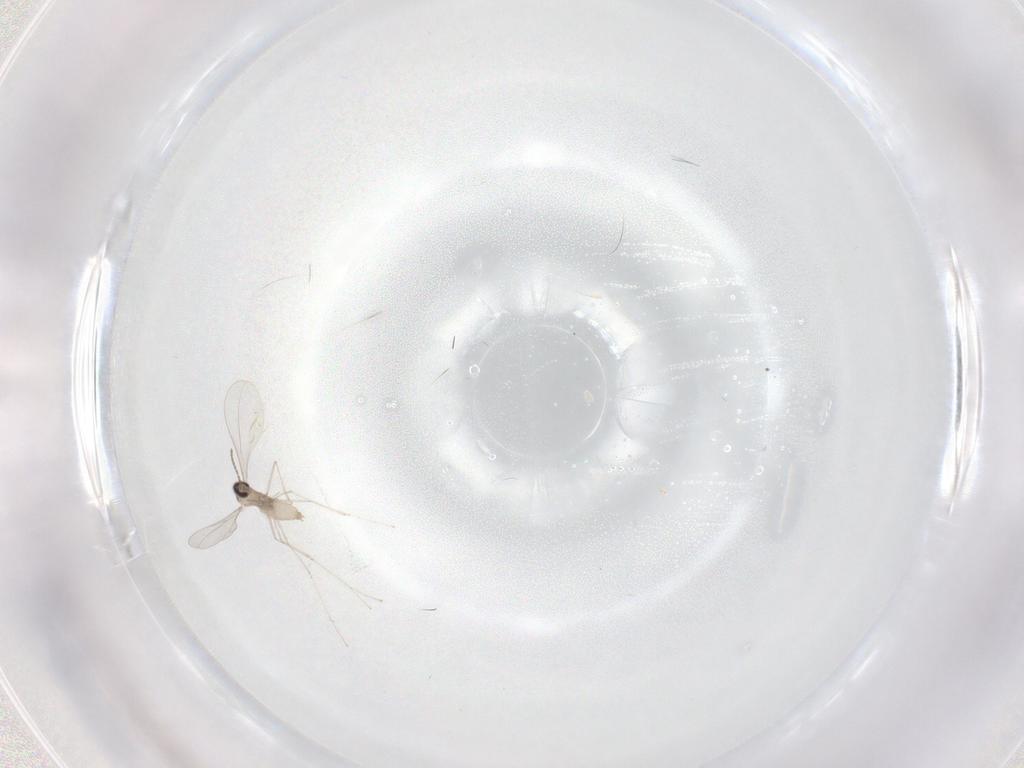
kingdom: Animalia
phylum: Arthropoda
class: Insecta
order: Diptera
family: Cecidomyiidae
